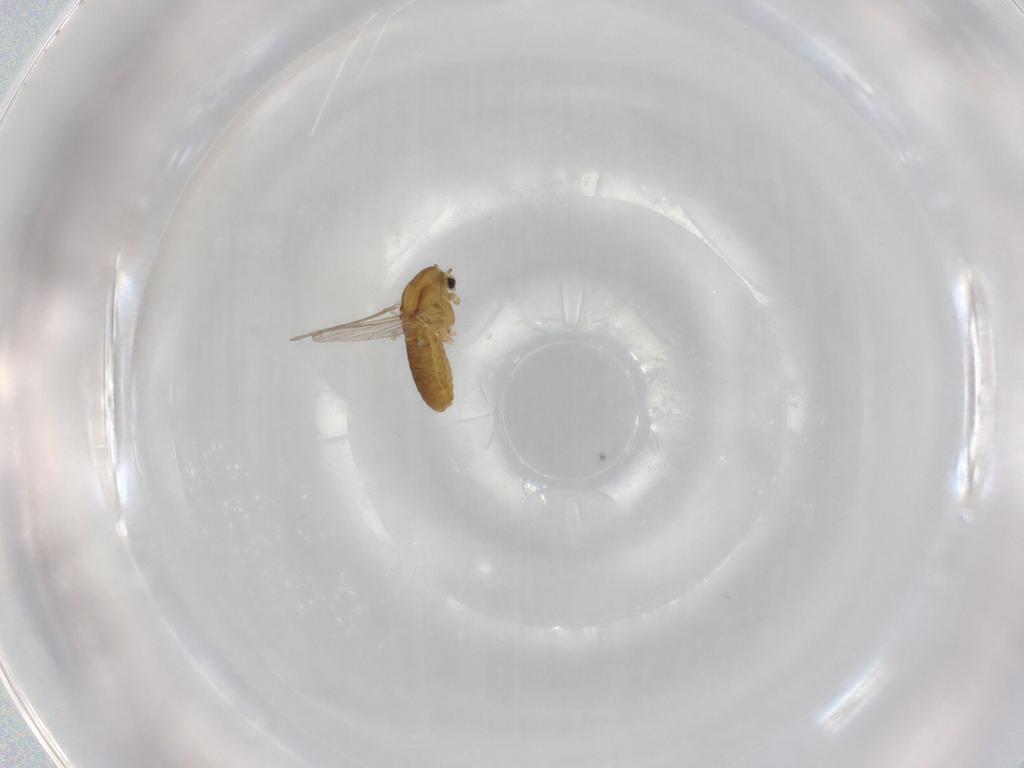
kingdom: Animalia
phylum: Arthropoda
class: Insecta
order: Diptera
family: Chironomidae
